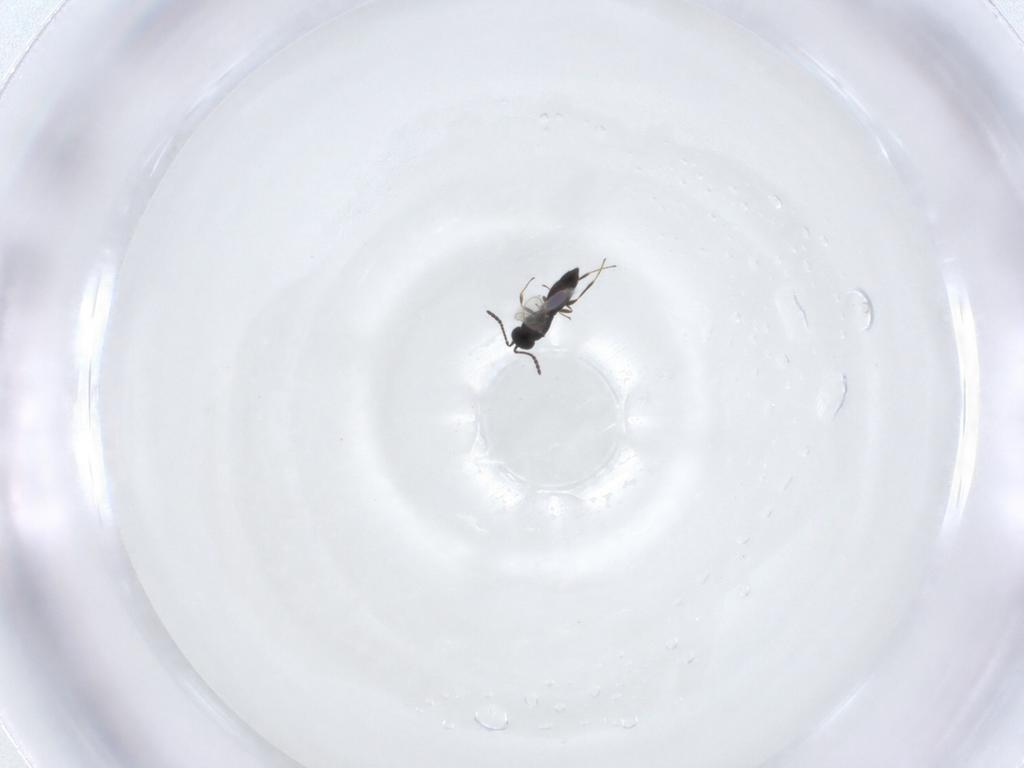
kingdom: Animalia
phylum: Arthropoda
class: Insecta
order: Hymenoptera
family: Scelionidae
